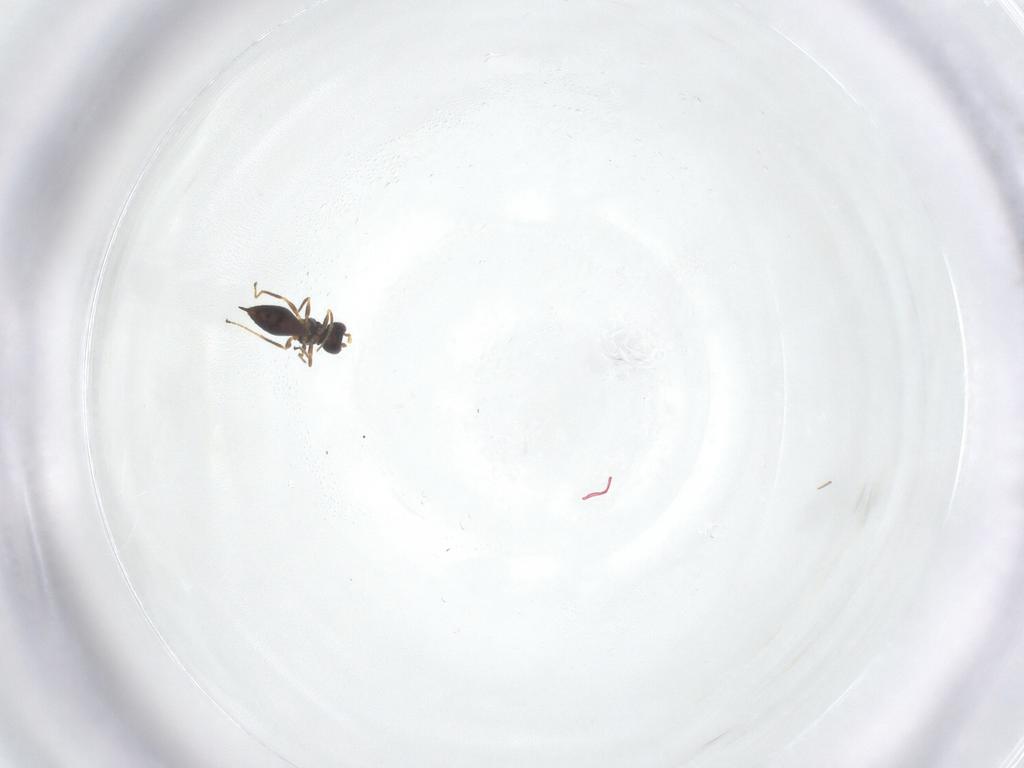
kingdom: Animalia
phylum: Arthropoda
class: Insecta
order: Hymenoptera
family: Mymaridae
